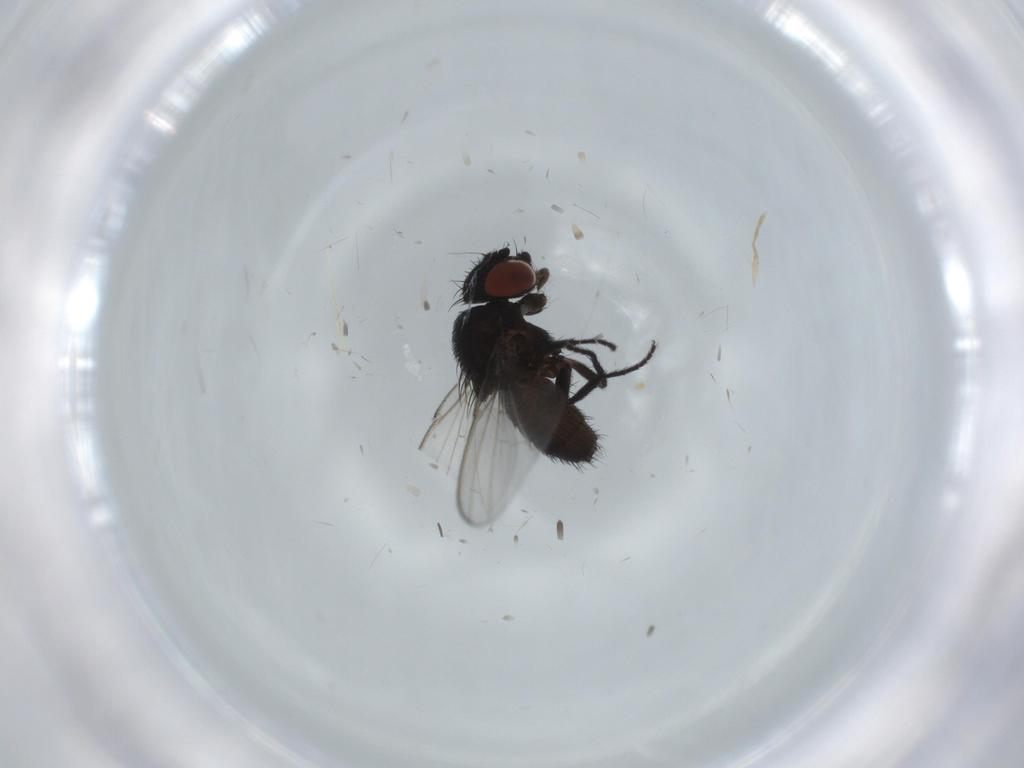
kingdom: Animalia
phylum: Arthropoda
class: Insecta
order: Diptera
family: Milichiidae
